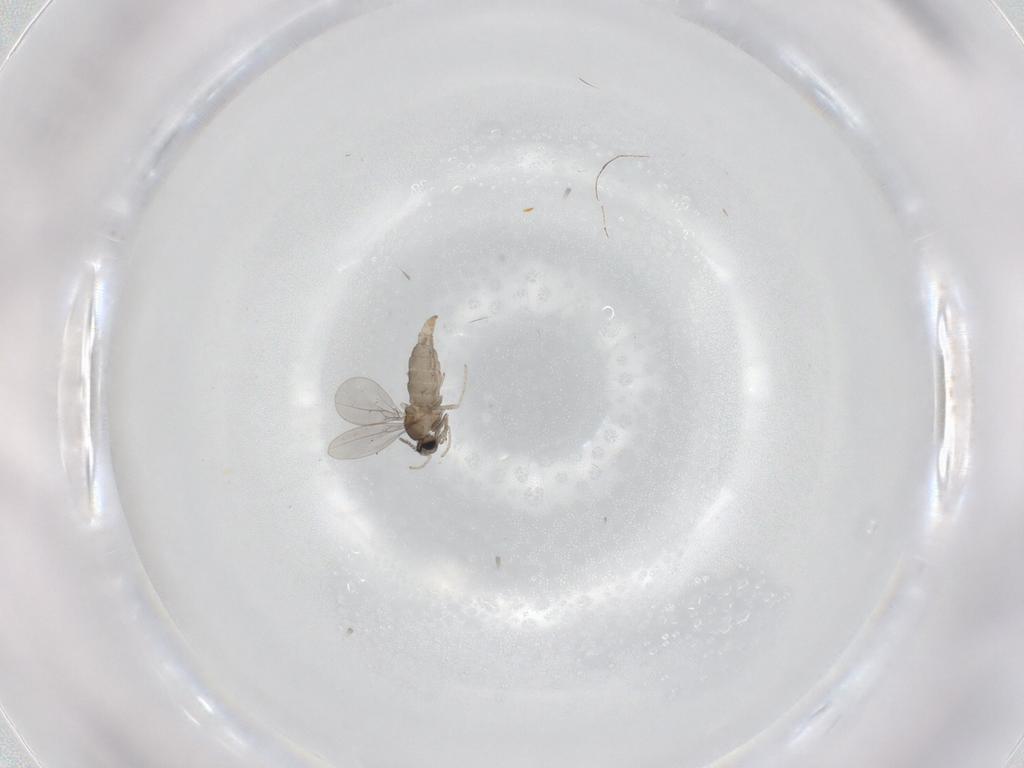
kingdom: Animalia
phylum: Arthropoda
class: Insecta
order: Diptera
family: Cecidomyiidae
